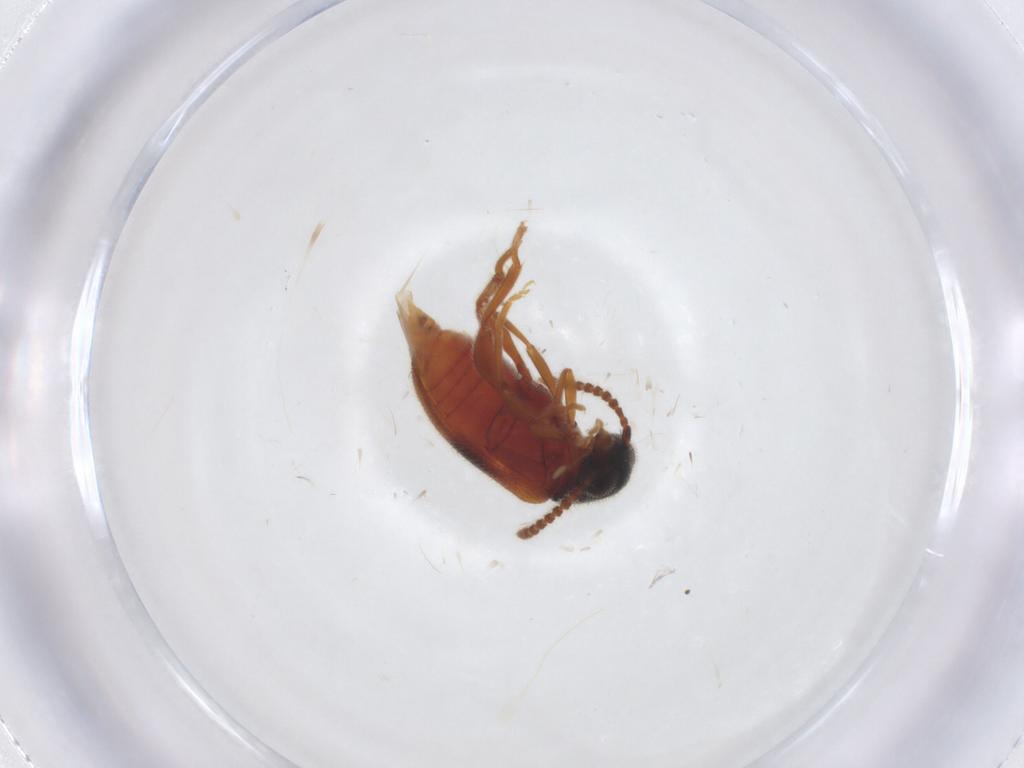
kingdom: Animalia
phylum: Arthropoda
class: Insecta
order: Coleoptera
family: Aderidae
